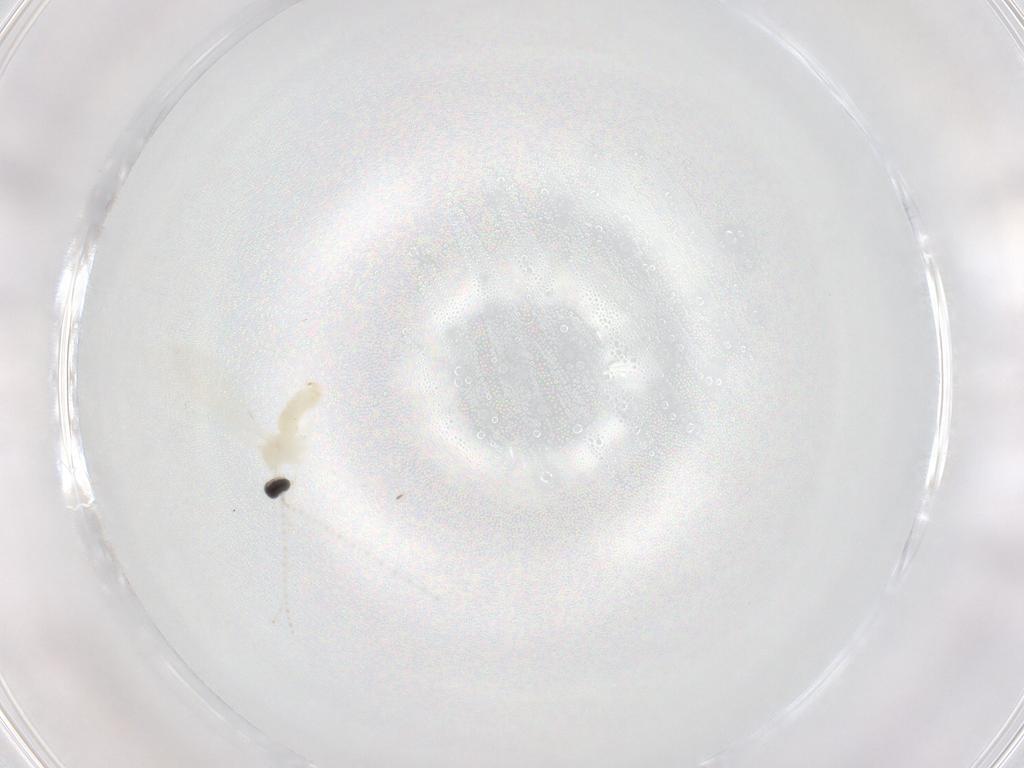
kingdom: Animalia
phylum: Arthropoda
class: Insecta
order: Diptera
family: Cecidomyiidae
